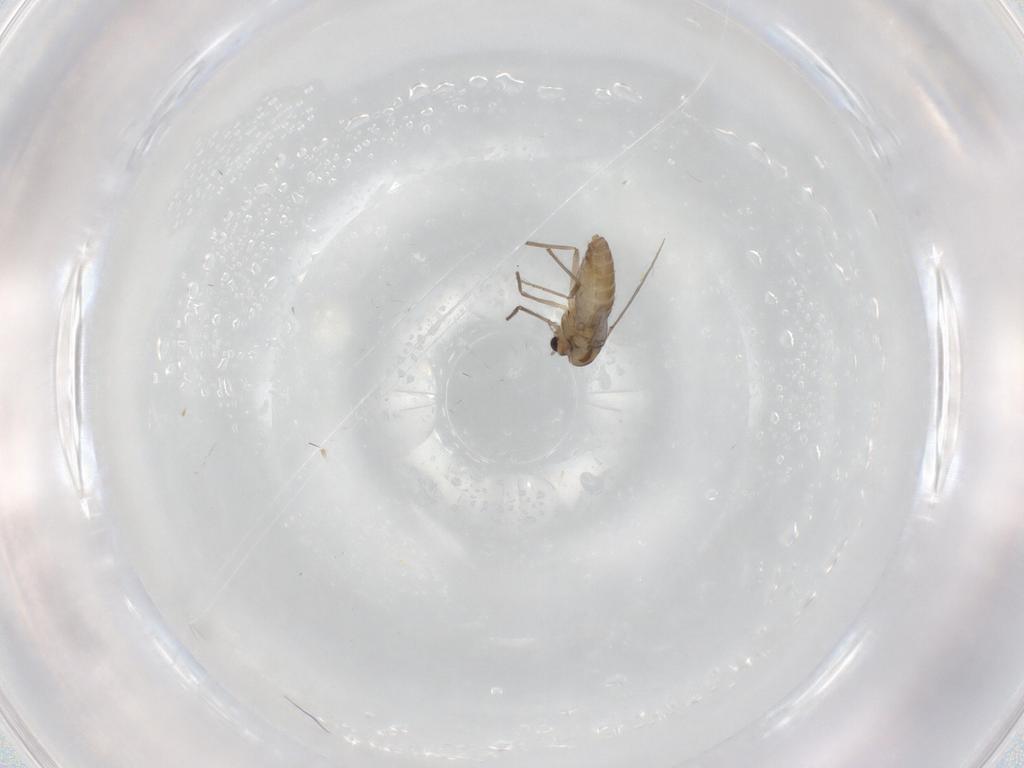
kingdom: Animalia
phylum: Arthropoda
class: Insecta
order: Diptera
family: Chironomidae
